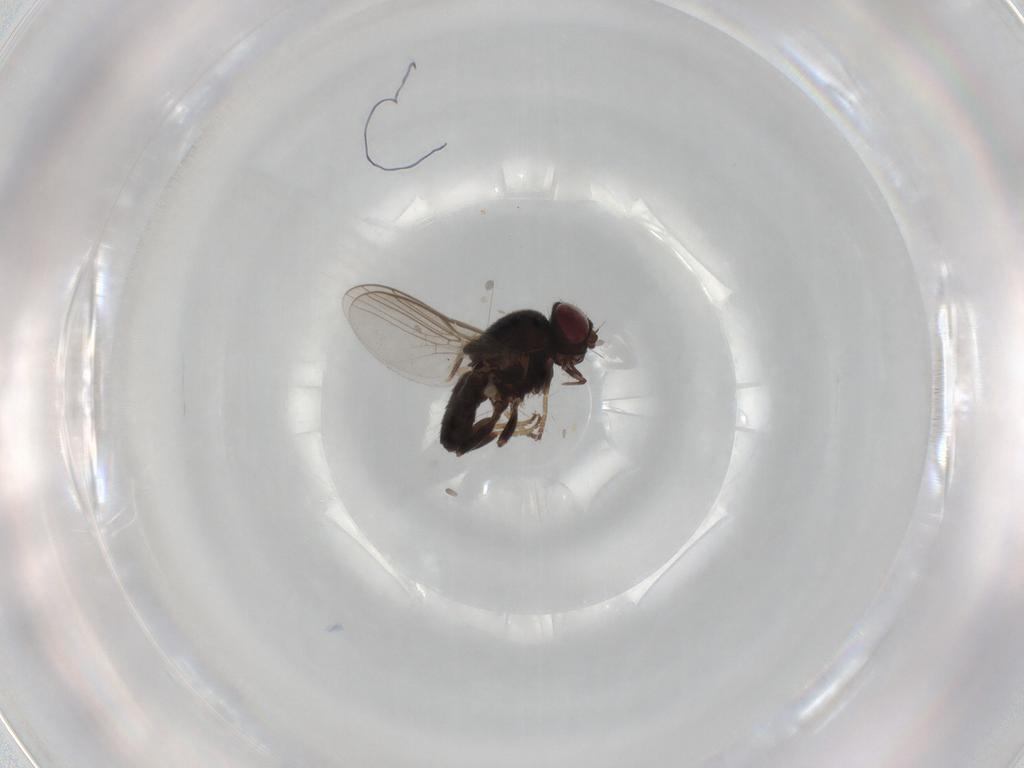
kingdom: Animalia
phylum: Arthropoda
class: Insecta
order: Diptera
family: Chloropidae
